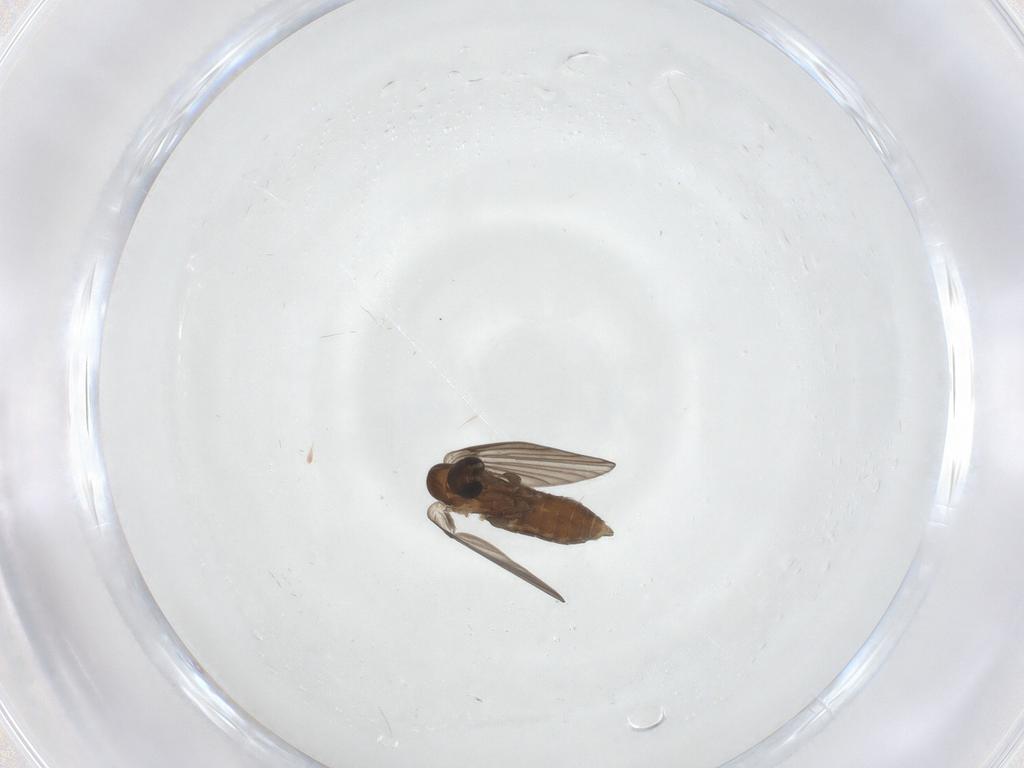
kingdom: Animalia
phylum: Arthropoda
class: Insecta
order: Diptera
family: Psychodidae
